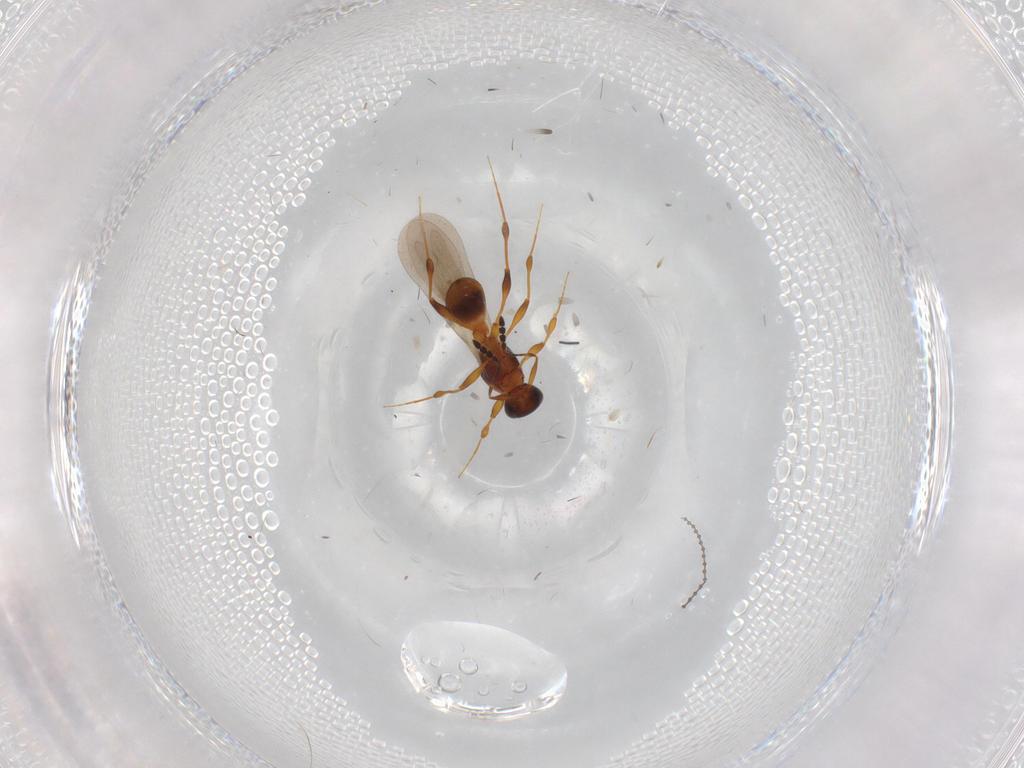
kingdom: Animalia
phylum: Arthropoda
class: Insecta
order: Hymenoptera
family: Platygastridae
